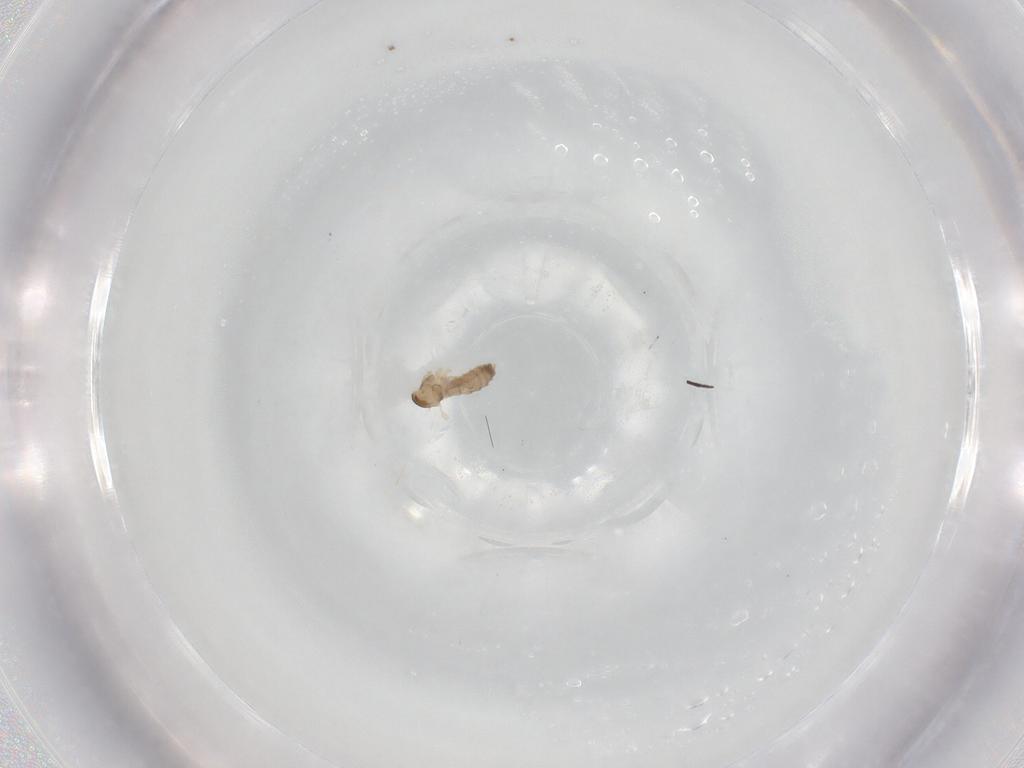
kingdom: Animalia
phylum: Arthropoda
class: Insecta
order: Diptera
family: Cecidomyiidae
